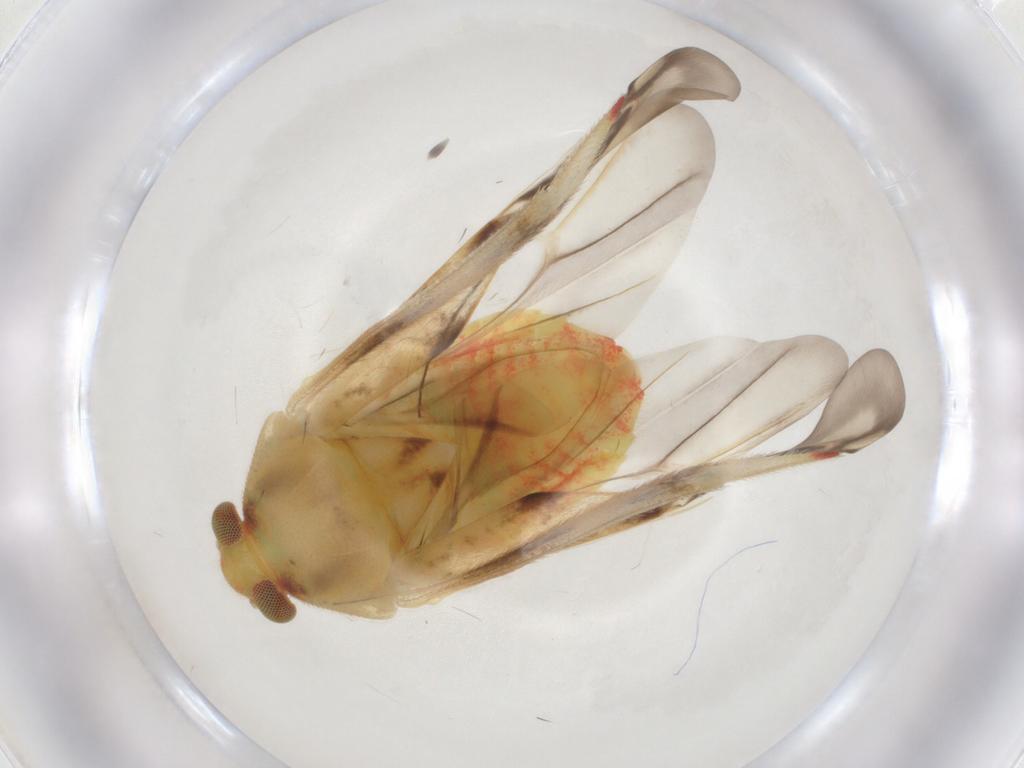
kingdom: Animalia
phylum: Arthropoda
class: Insecta
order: Hemiptera
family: Miridae
